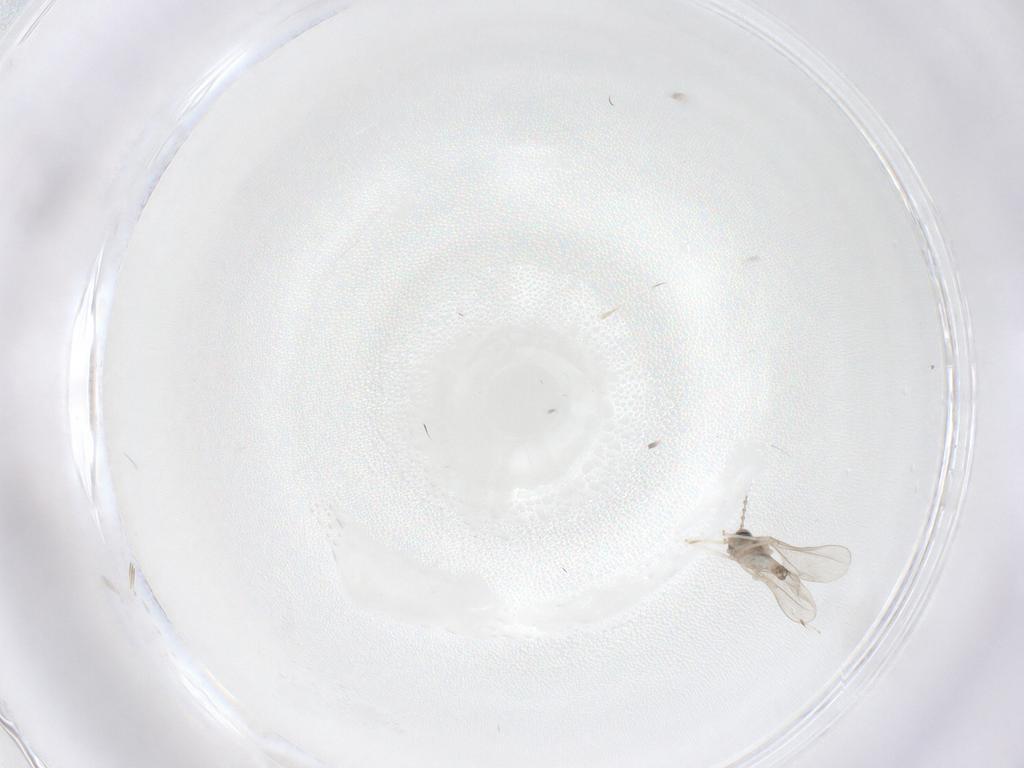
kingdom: Animalia
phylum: Arthropoda
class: Insecta
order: Diptera
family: Cecidomyiidae
